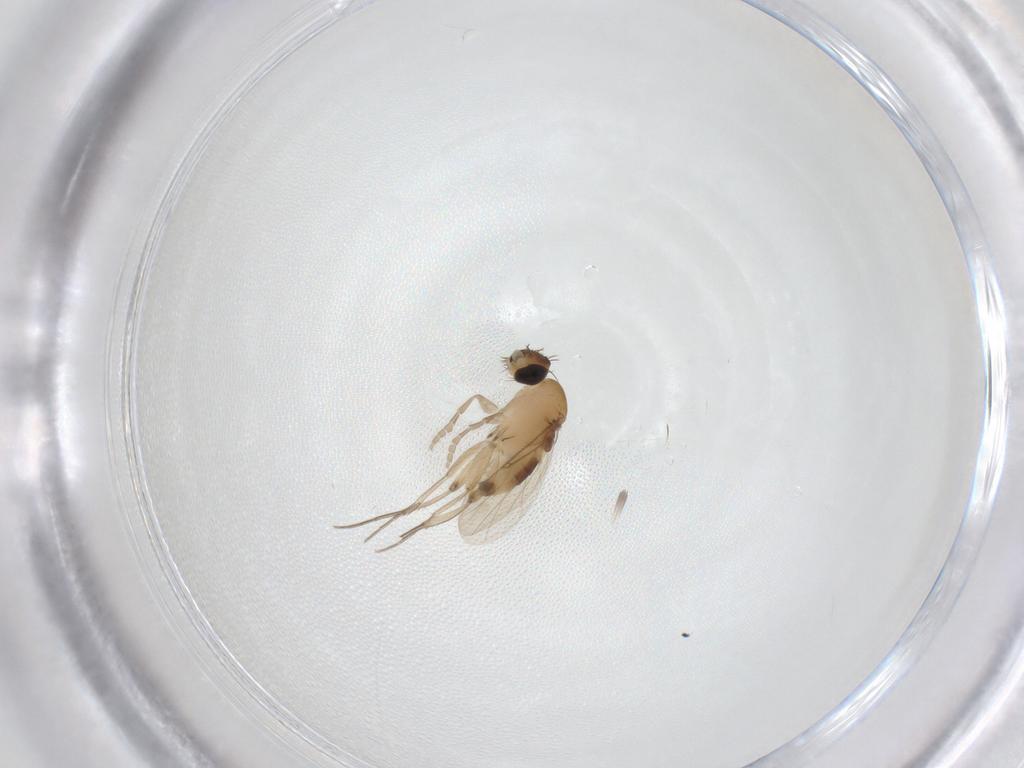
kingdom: Animalia
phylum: Arthropoda
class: Insecta
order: Diptera
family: Phoridae
